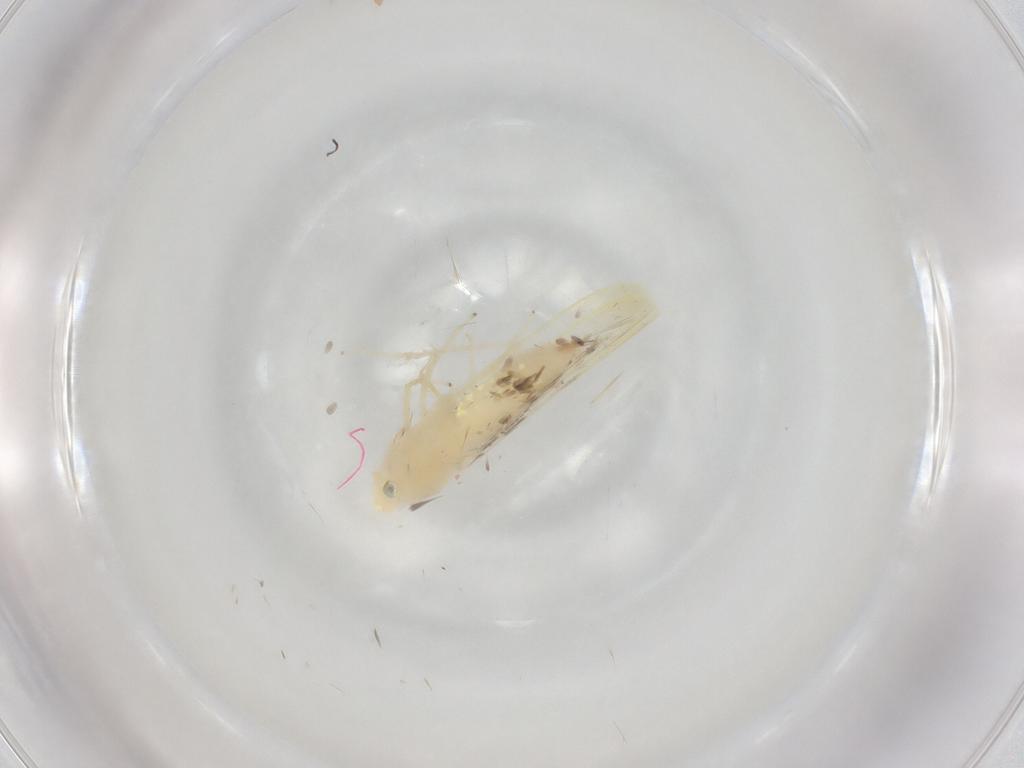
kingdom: Animalia
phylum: Arthropoda
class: Insecta
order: Hemiptera
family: Cicadellidae
